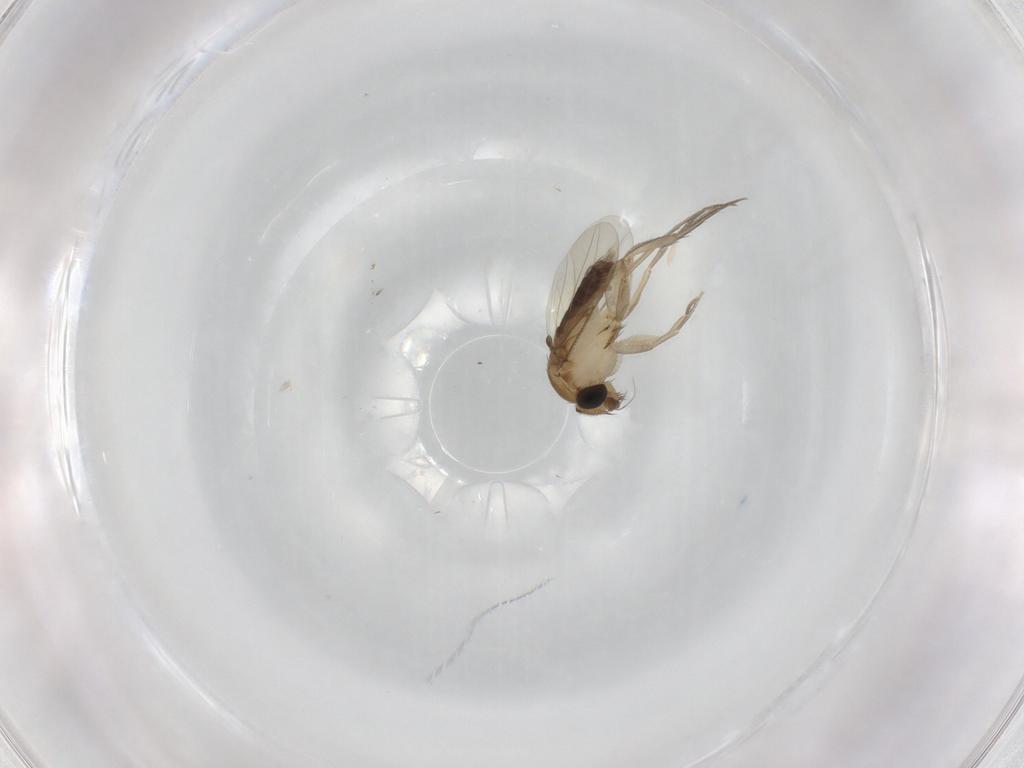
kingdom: Animalia
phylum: Arthropoda
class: Insecta
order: Diptera
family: Phoridae
